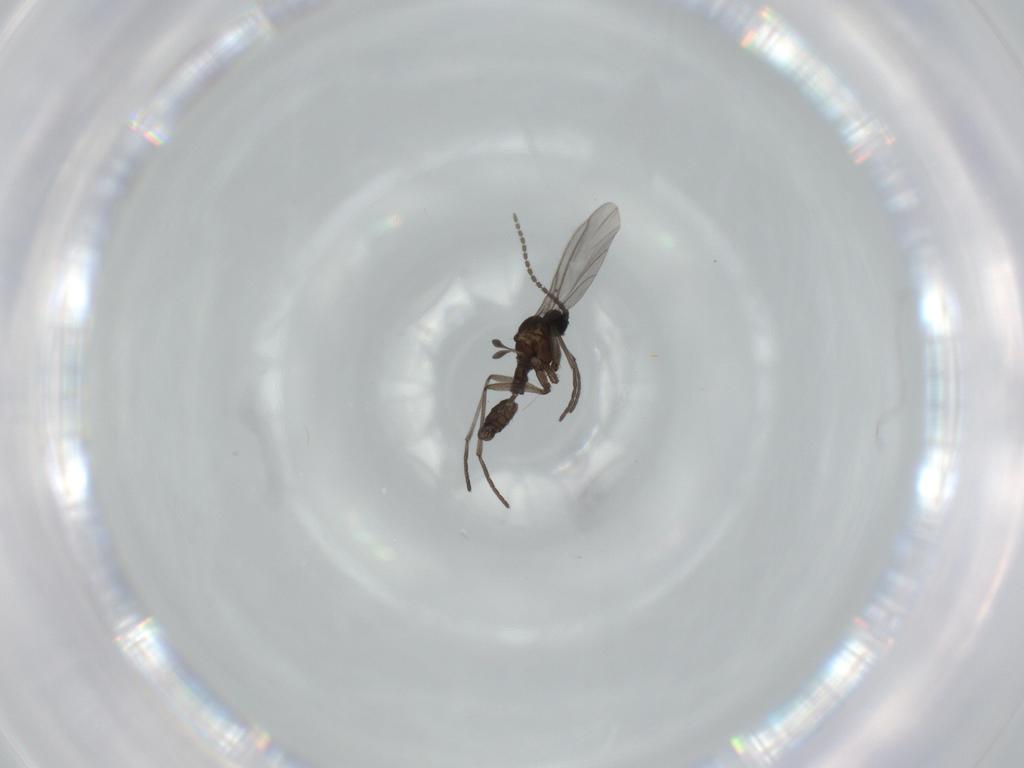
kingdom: Animalia
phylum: Arthropoda
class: Insecta
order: Diptera
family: Sciaridae
